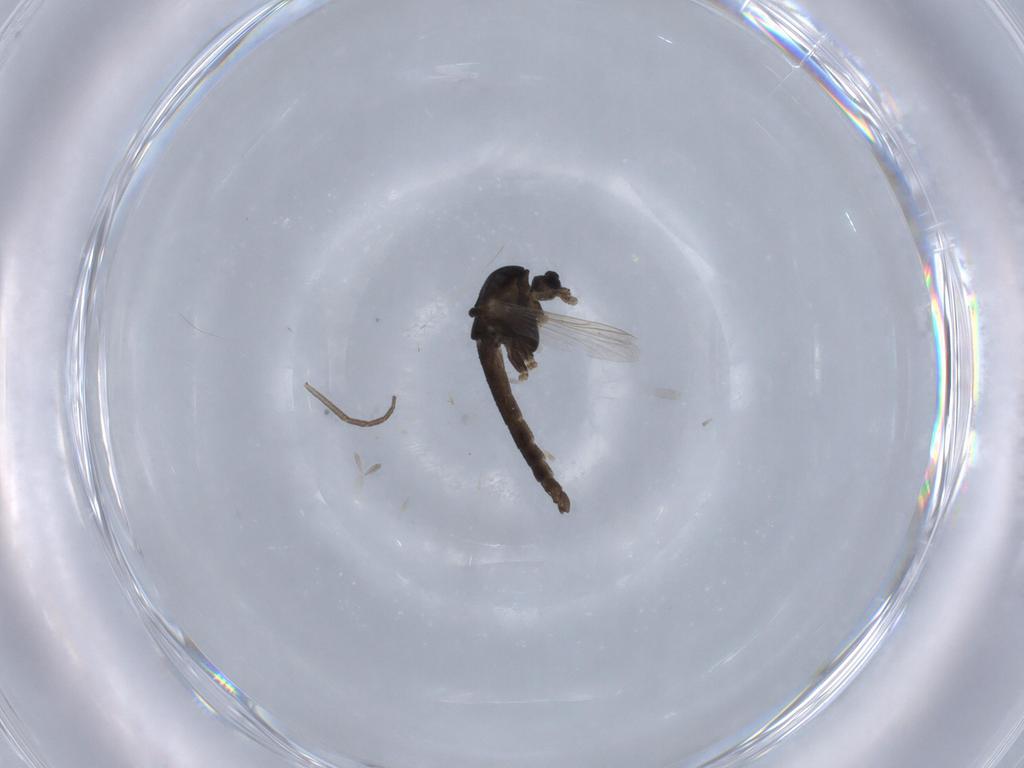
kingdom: Animalia
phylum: Arthropoda
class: Insecta
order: Diptera
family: Chironomidae
